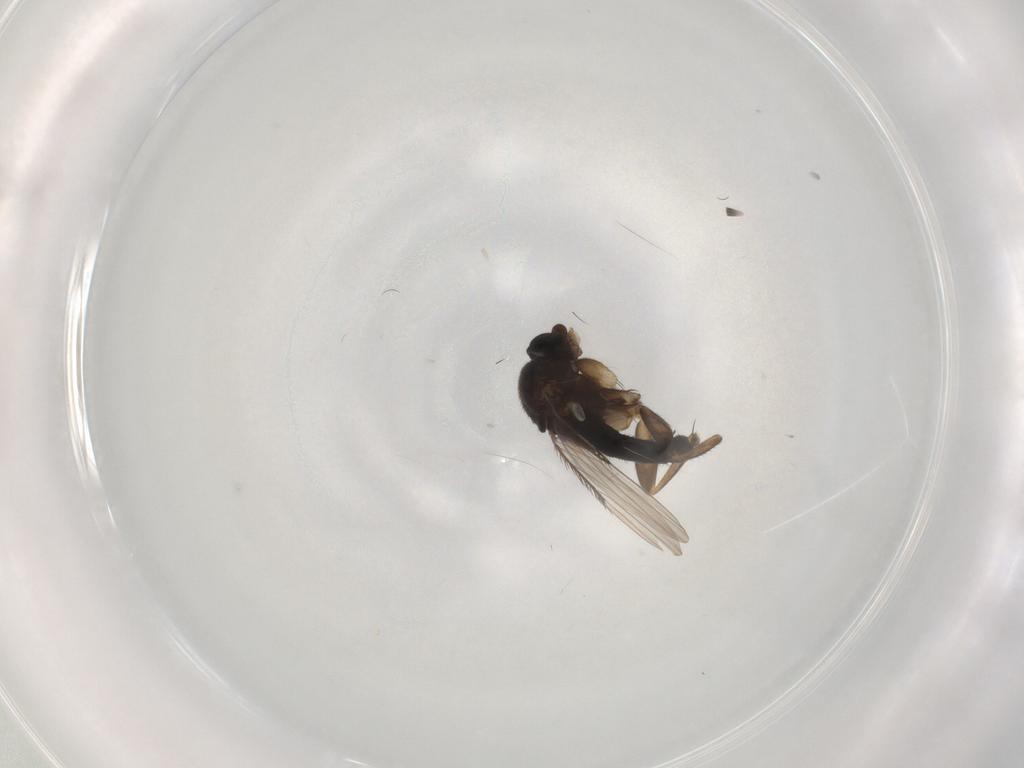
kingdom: Animalia
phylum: Arthropoda
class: Insecta
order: Diptera
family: Phoridae
